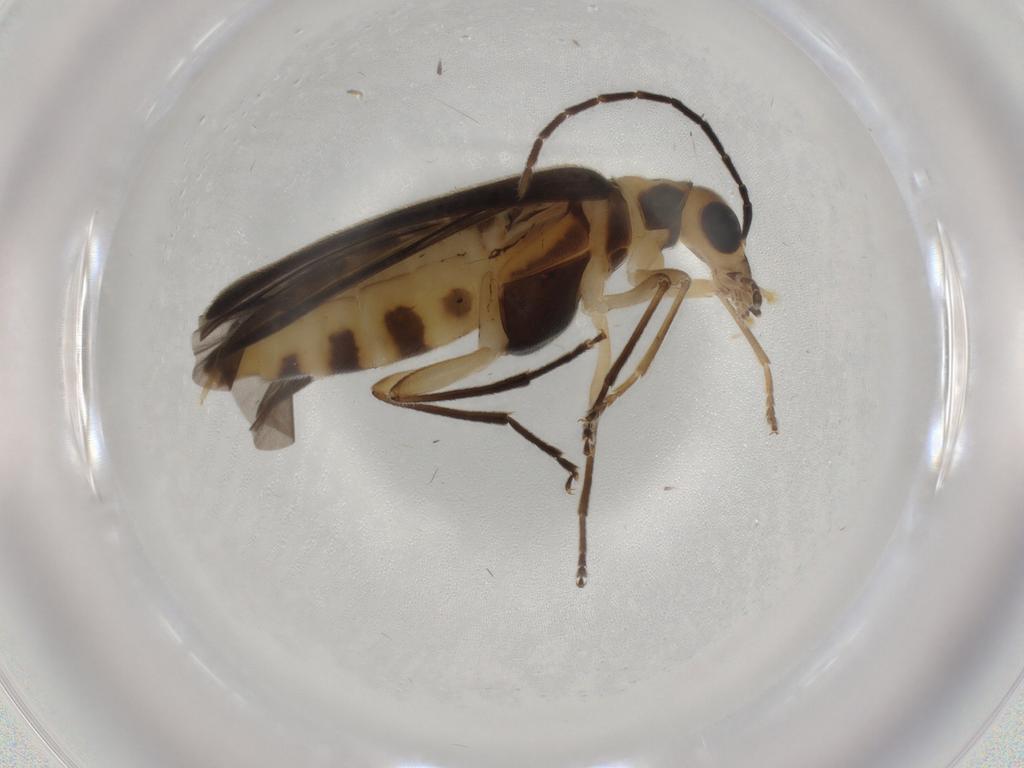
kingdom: Animalia
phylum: Arthropoda
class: Insecta
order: Coleoptera
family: Oedemeridae
